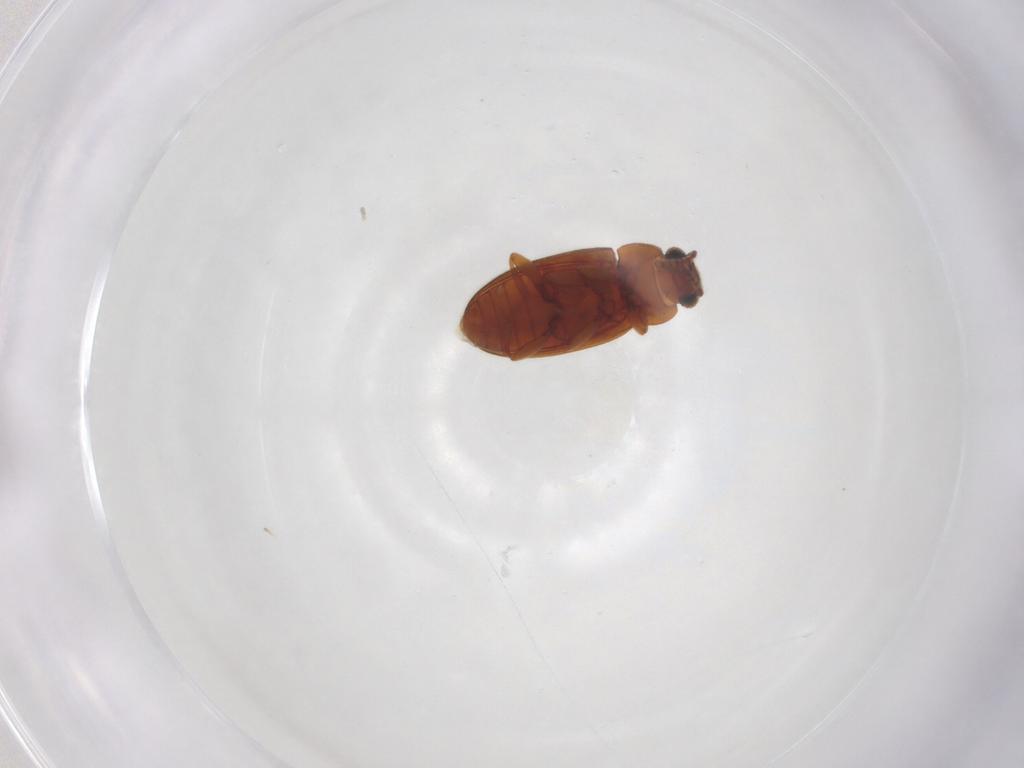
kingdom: Animalia
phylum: Arthropoda
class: Insecta
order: Coleoptera
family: Erotylidae
